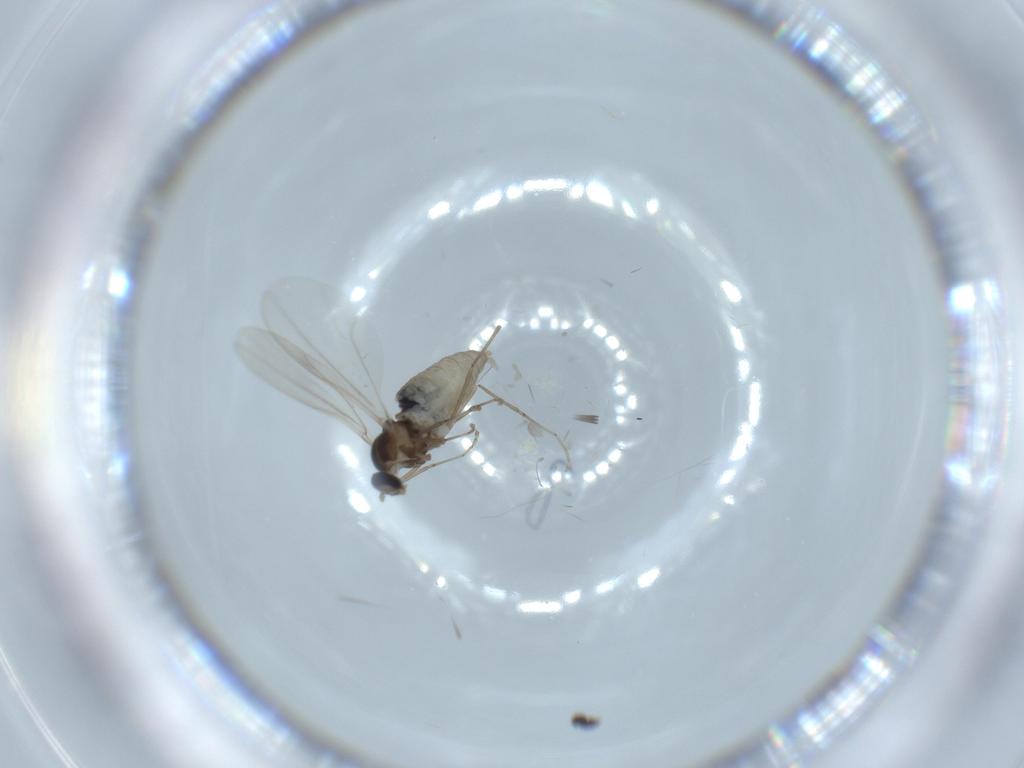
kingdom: Animalia
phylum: Arthropoda
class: Insecta
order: Diptera
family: Cecidomyiidae
